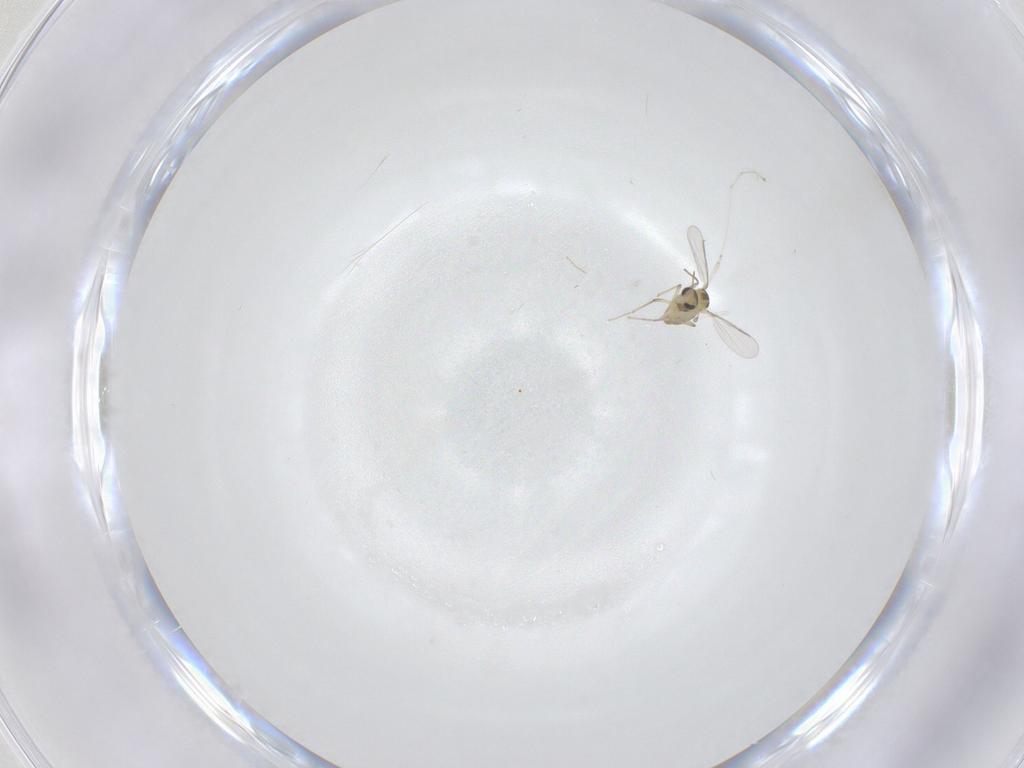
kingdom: Animalia
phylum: Arthropoda
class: Insecta
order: Diptera
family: Chironomidae
